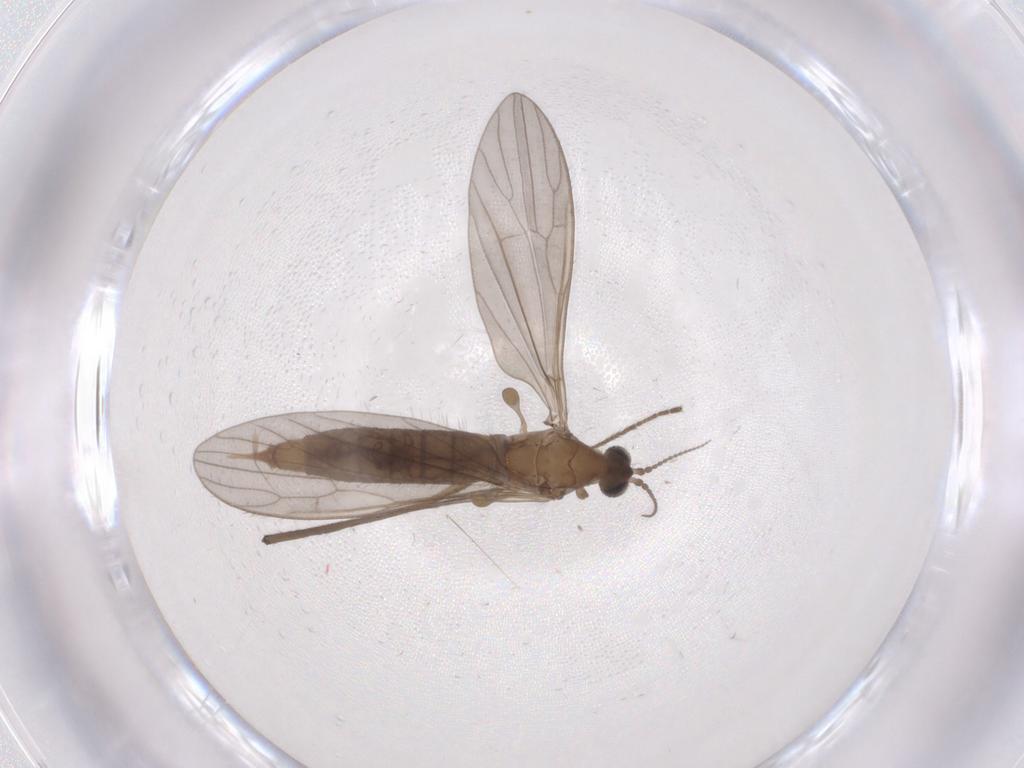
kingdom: Animalia
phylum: Arthropoda
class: Insecta
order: Diptera
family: Limoniidae
